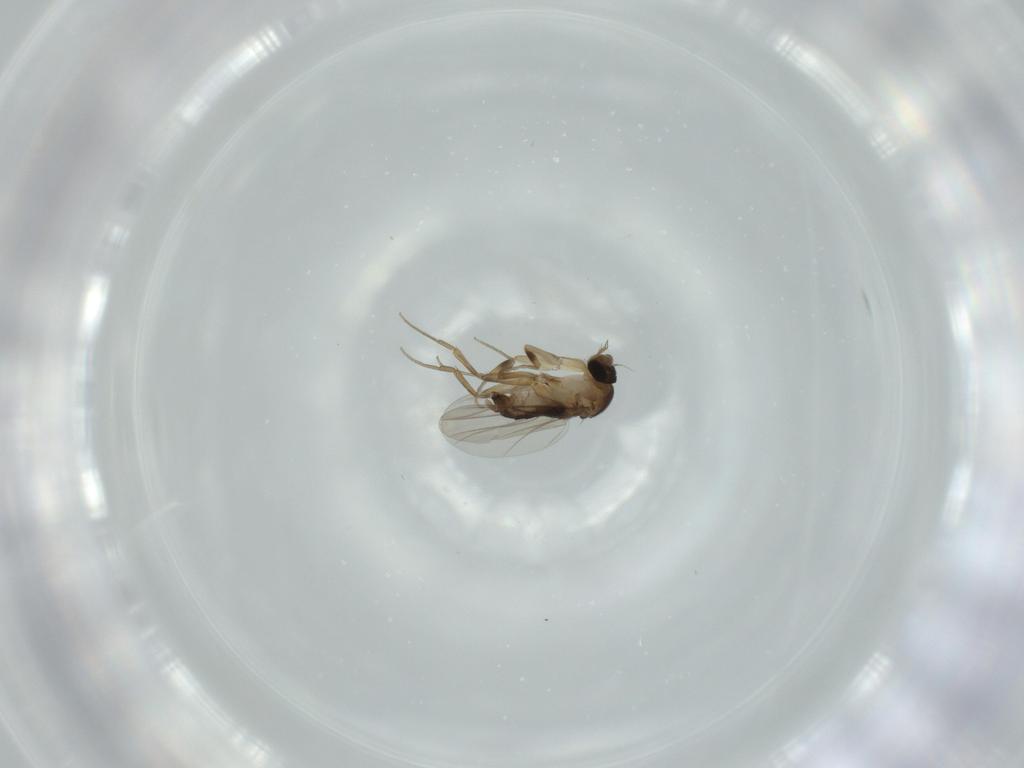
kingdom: Animalia
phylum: Arthropoda
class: Insecta
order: Diptera
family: Phoridae
